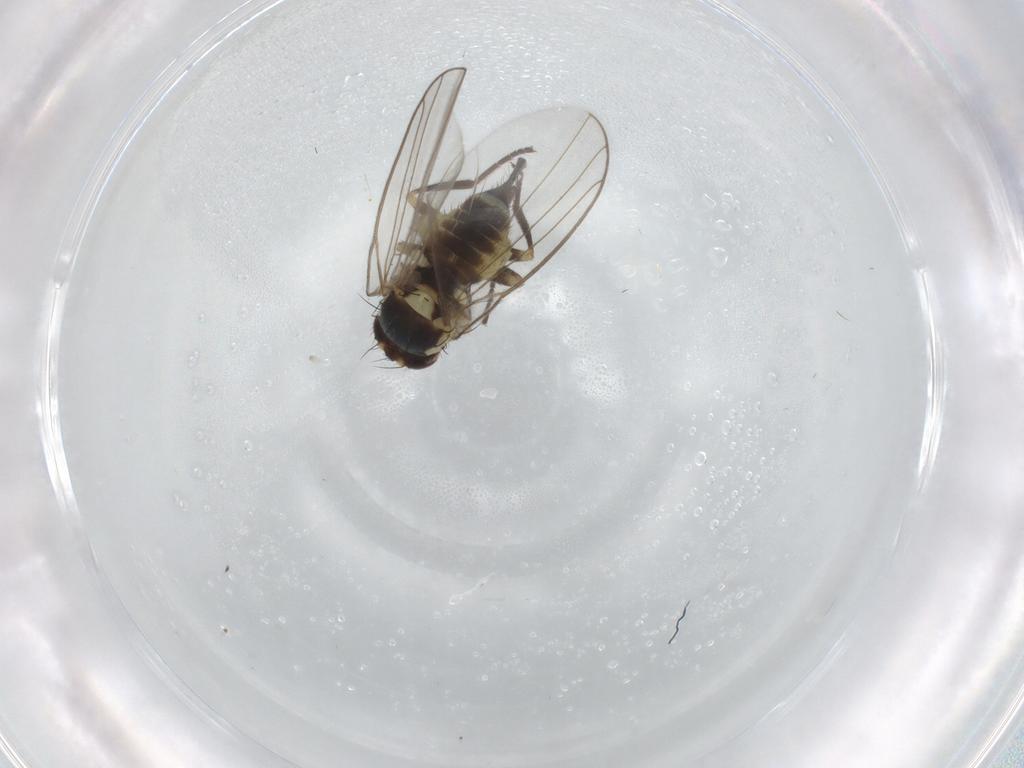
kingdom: Animalia
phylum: Arthropoda
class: Insecta
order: Diptera
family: Agromyzidae
